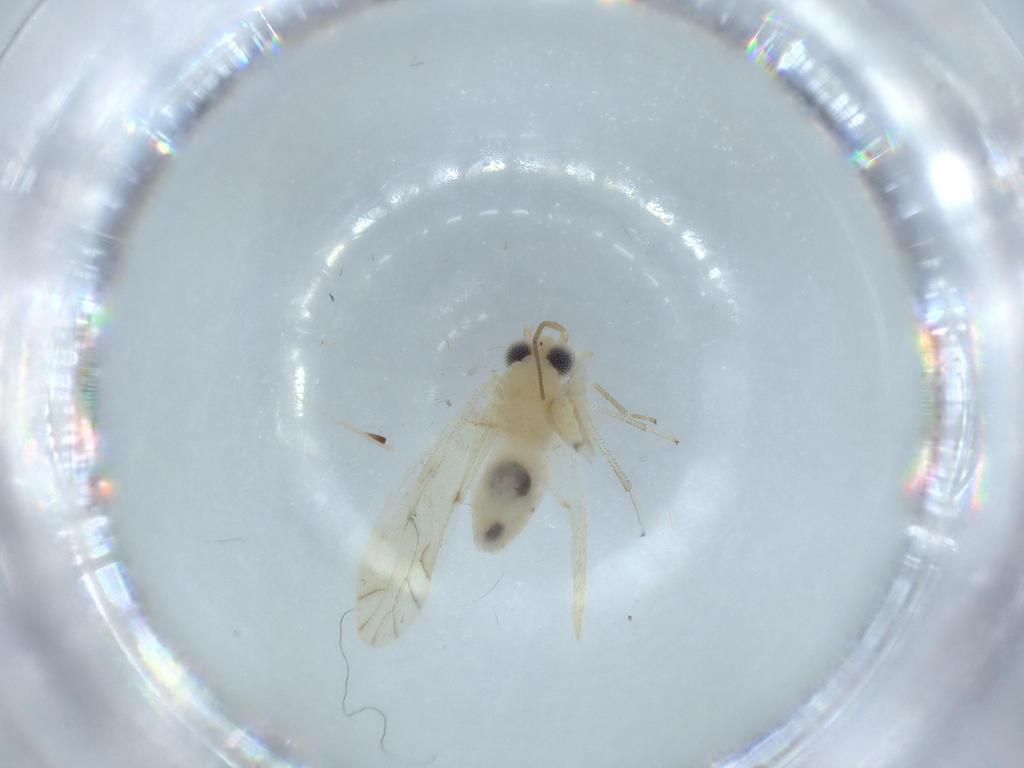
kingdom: Animalia
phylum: Arthropoda
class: Insecta
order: Psocodea
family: Caeciliusidae
